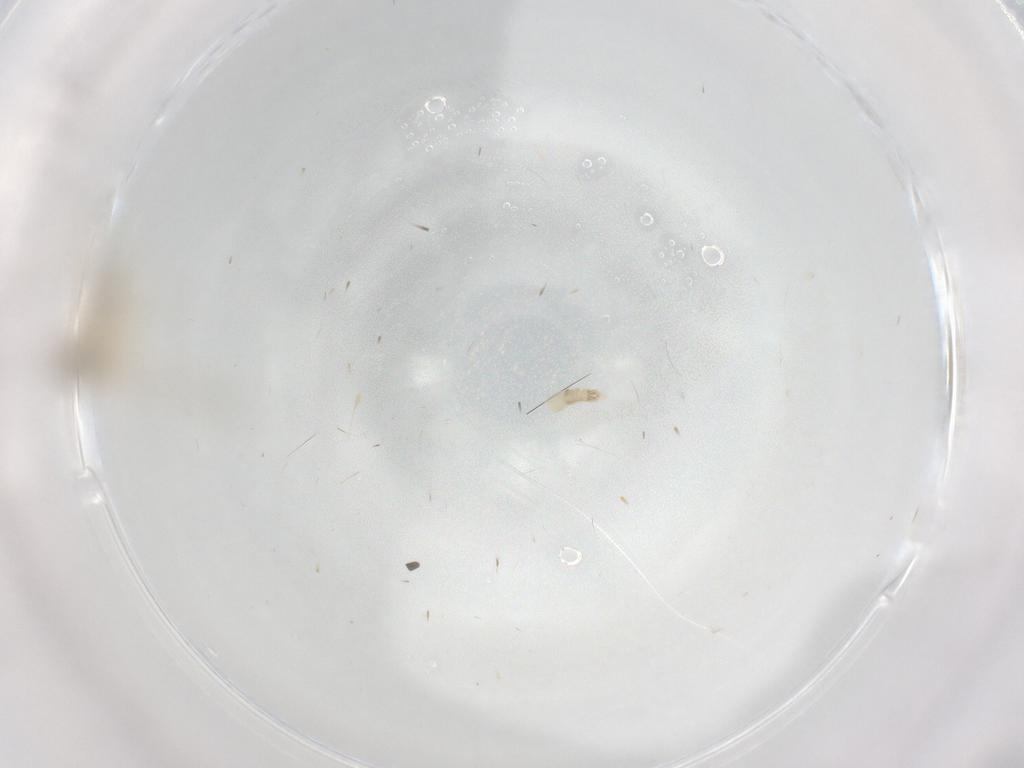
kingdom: Animalia
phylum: Arthropoda
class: Insecta
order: Diptera
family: Chironomidae
